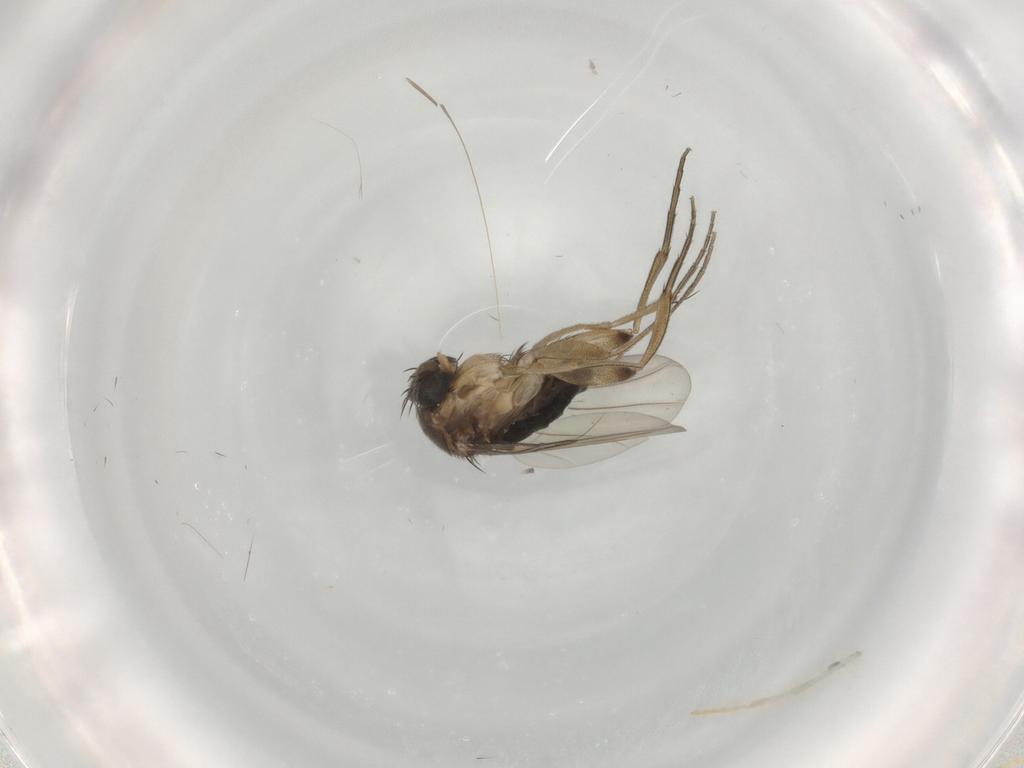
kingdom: Animalia
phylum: Arthropoda
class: Insecta
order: Diptera
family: Phoridae
